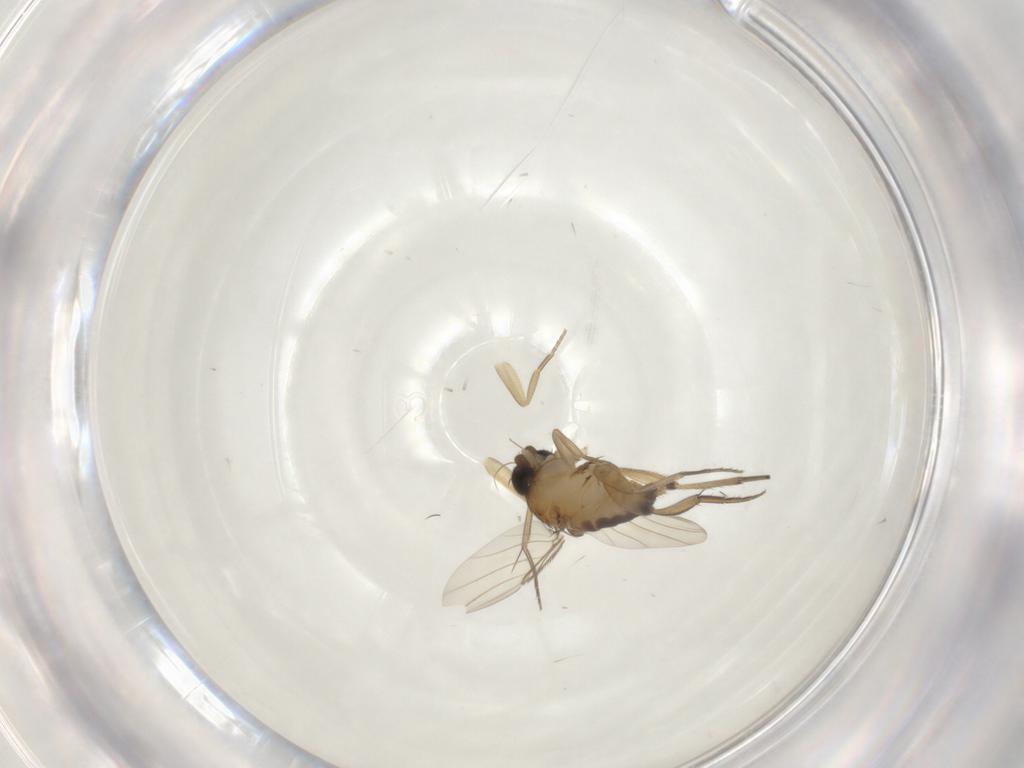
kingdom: Animalia
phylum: Arthropoda
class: Insecta
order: Diptera
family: Phoridae
